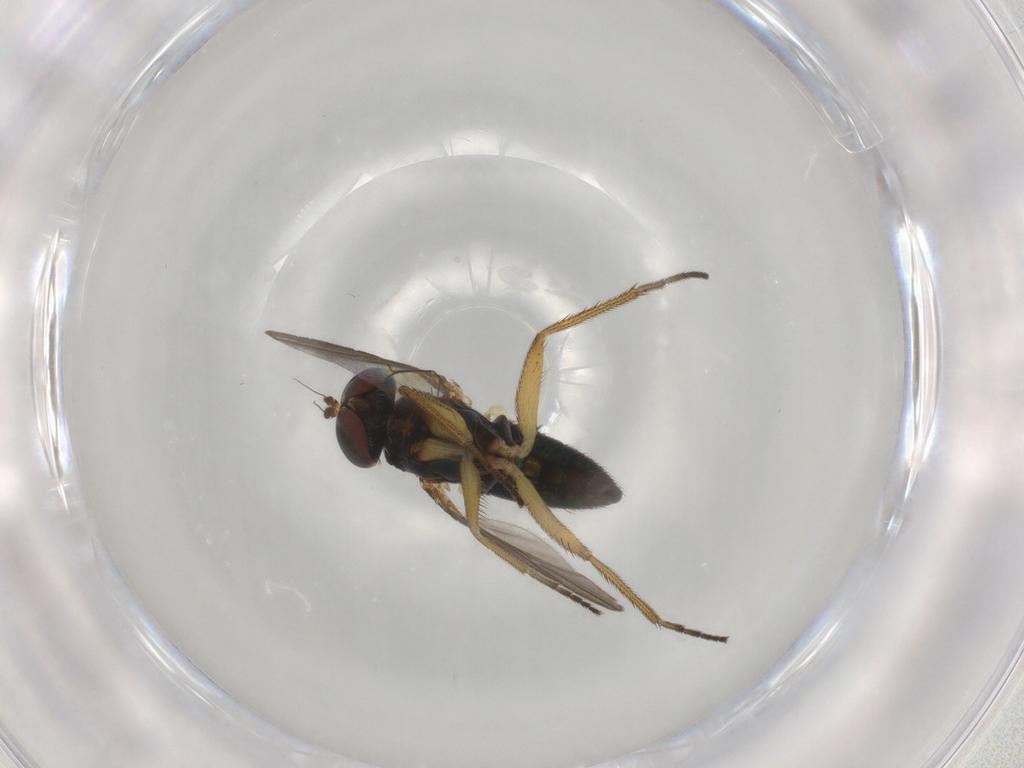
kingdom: Animalia
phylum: Arthropoda
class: Insecta
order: Diptera
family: Dolichopodidae
